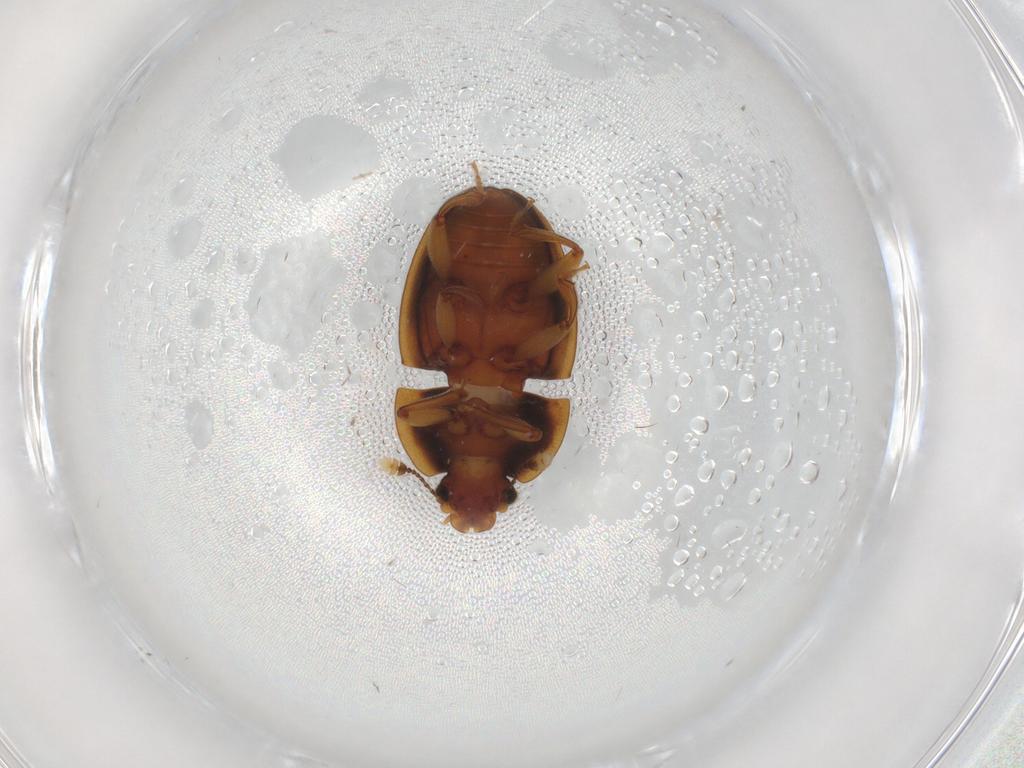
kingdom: Animalia
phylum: Arthropoda
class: Insecta
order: Coleoptera
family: Nitidulidae
